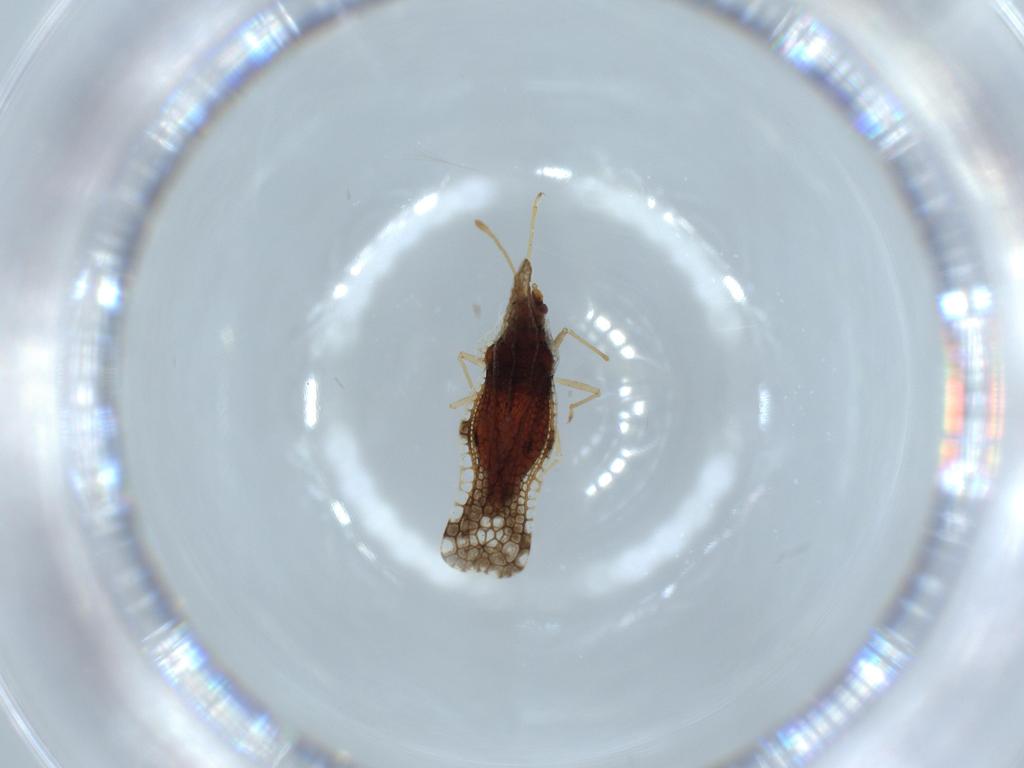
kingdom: Animalia
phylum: Arthropoda
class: Insecta
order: Hemiptera
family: Tingidae
